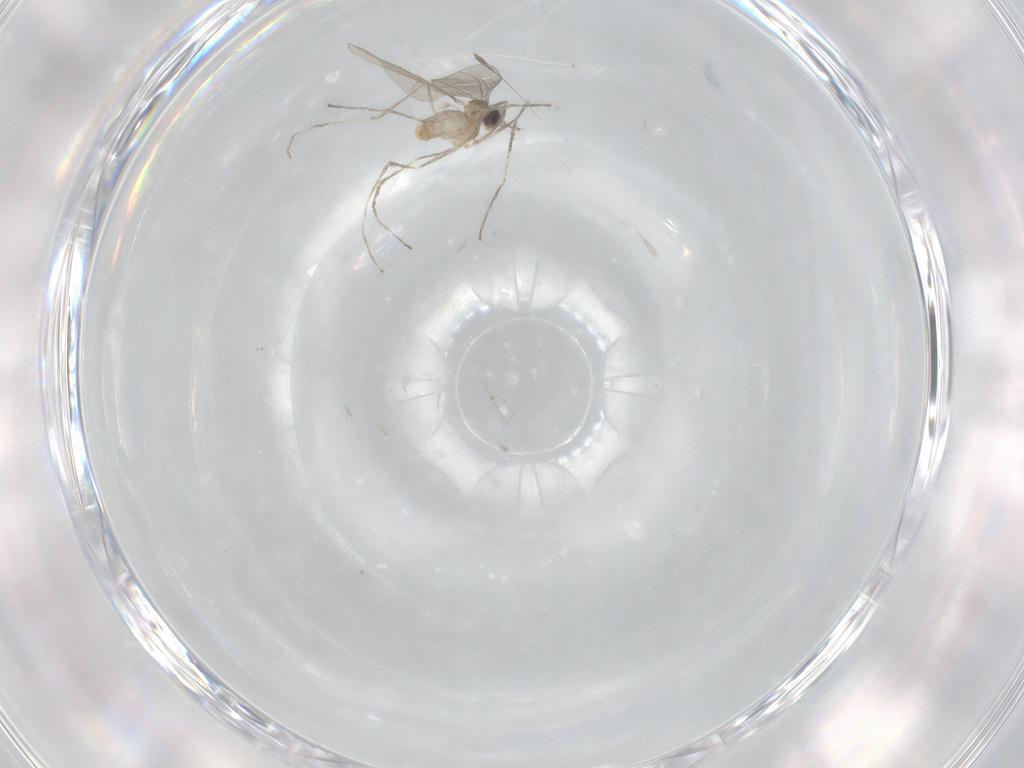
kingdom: Animalia
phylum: Arthropoda
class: Insecta
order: Diptera
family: Cecidomyiidae
